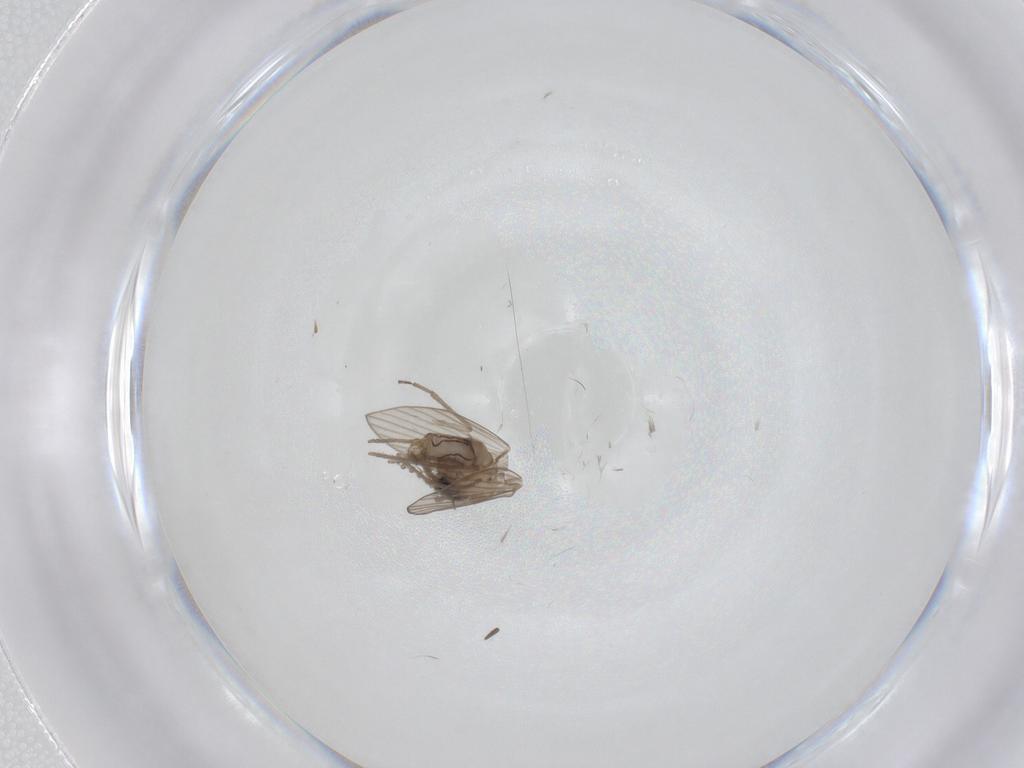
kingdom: Animalia
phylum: Arthropoda
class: Insecta
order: Diptera
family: Psychodidae
